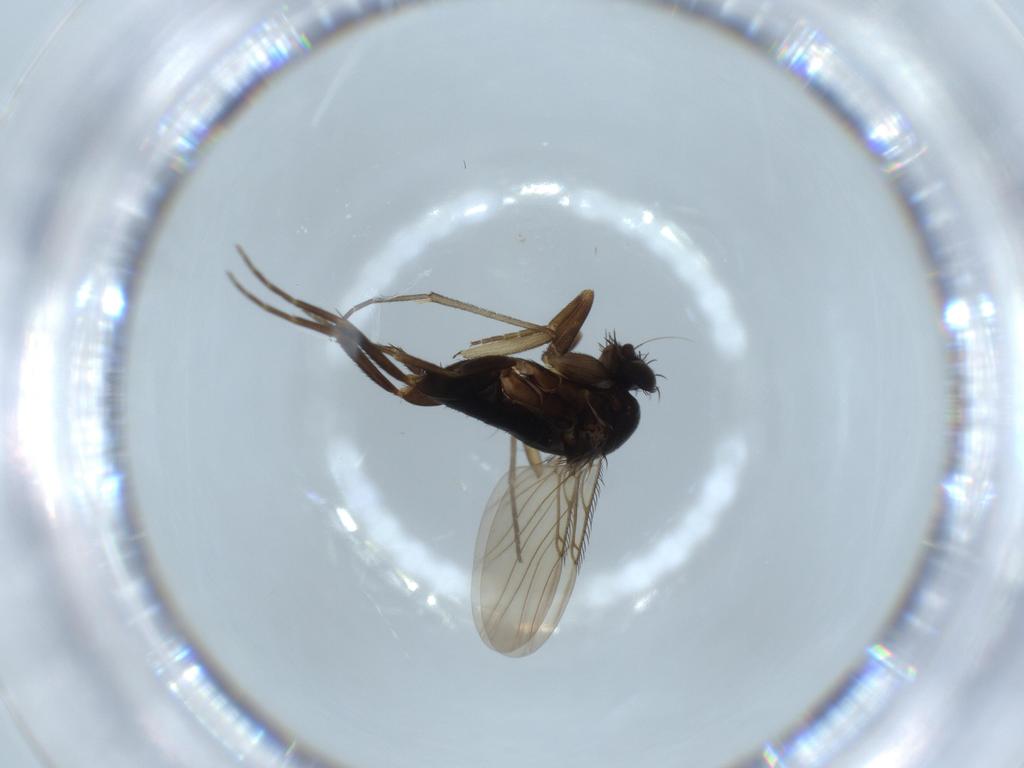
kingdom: Animalia
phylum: Arthropoda
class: Insecta
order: Diptera
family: Phoridae
